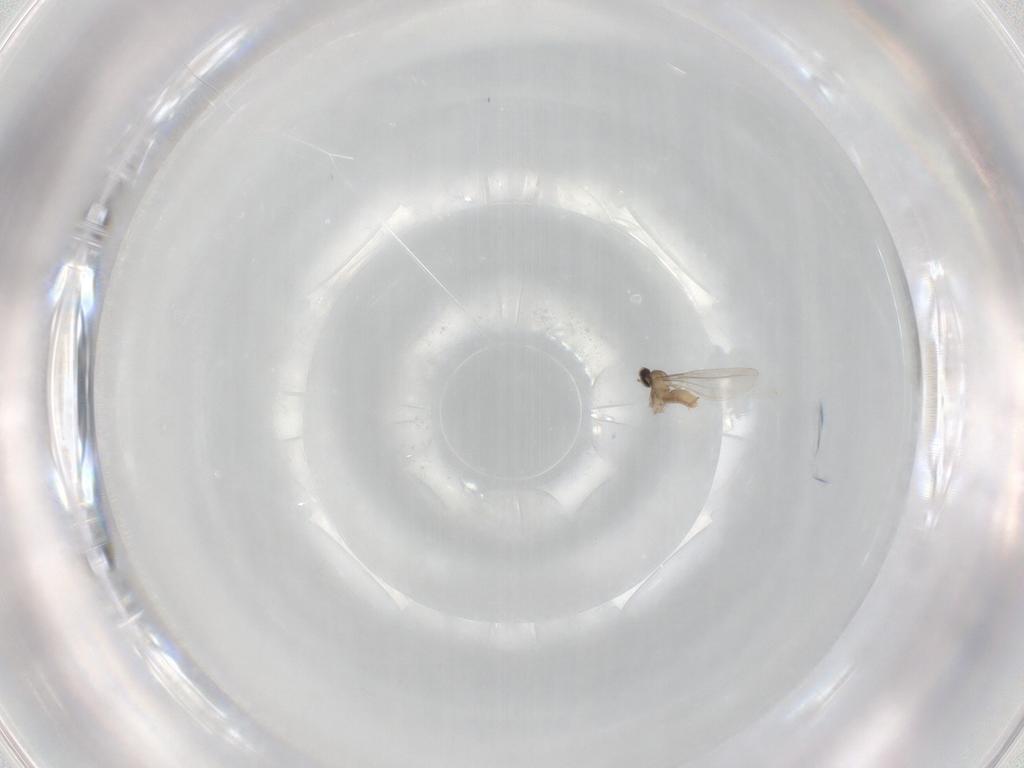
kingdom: Animalia
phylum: Arthropoda
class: Insecta
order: Diptera
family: Cecidomyiidae
